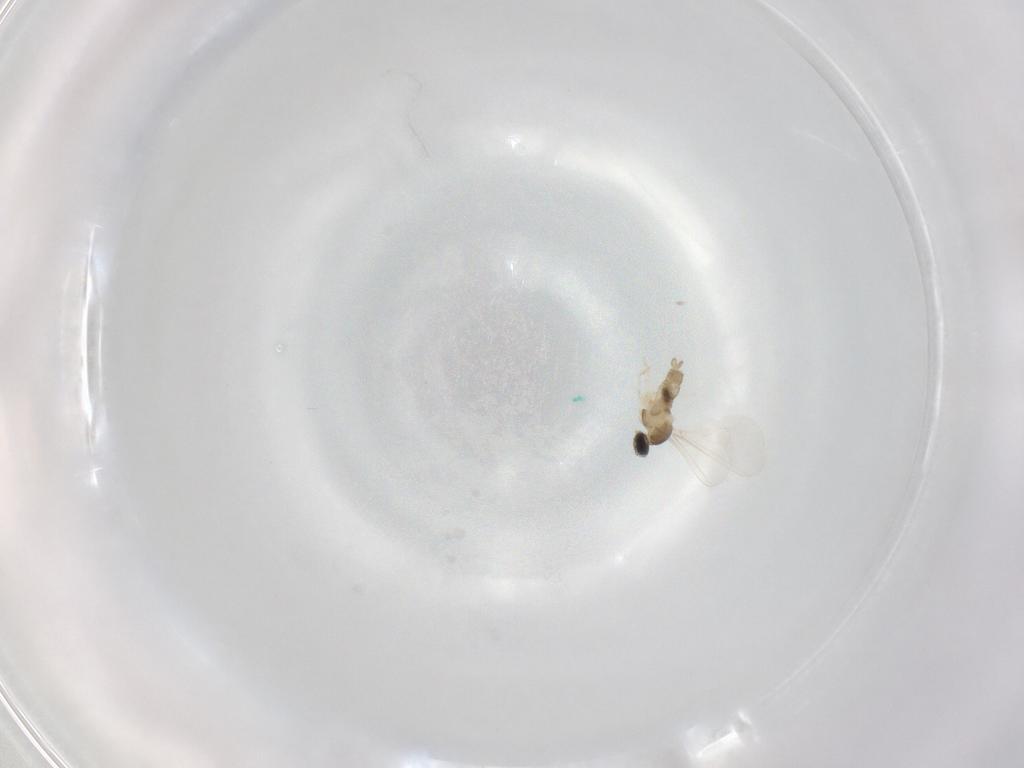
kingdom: Animalia
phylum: Arthropoda
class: Insecta
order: Diptera
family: Cecidomyiidae
